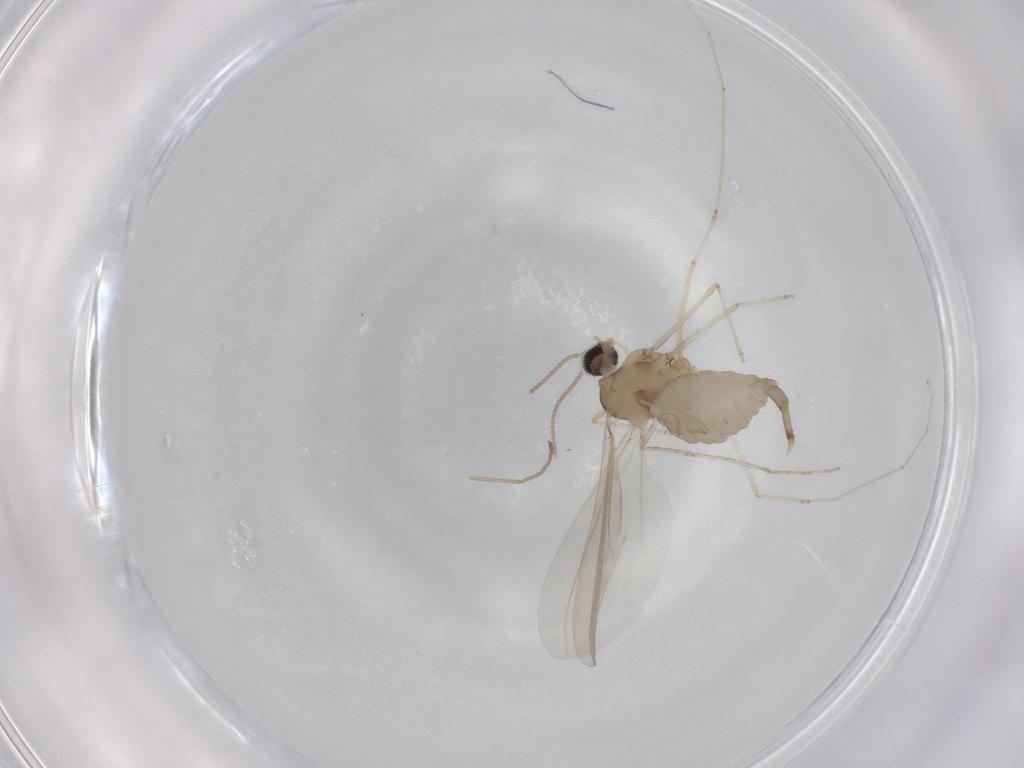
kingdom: Animalia
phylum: Arthropoda
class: Insecta
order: Diptera
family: Cecidomyiidae
